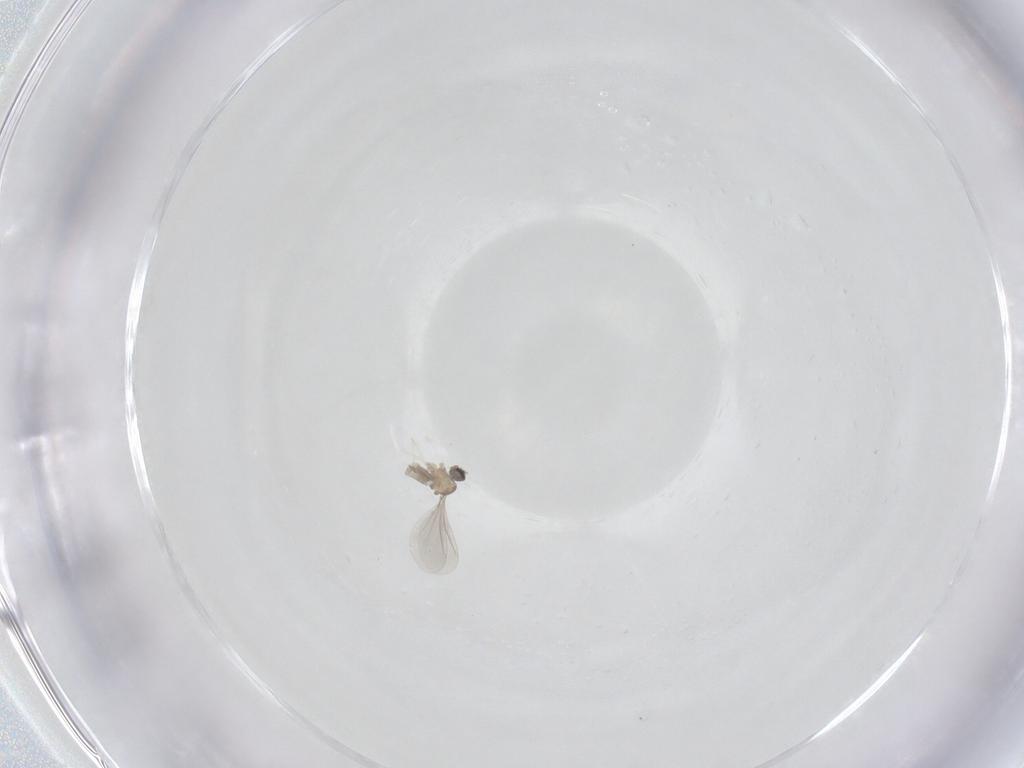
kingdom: Animalia
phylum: Arthropoda
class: Insecta
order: Diptera
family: Cecidomyiidae
